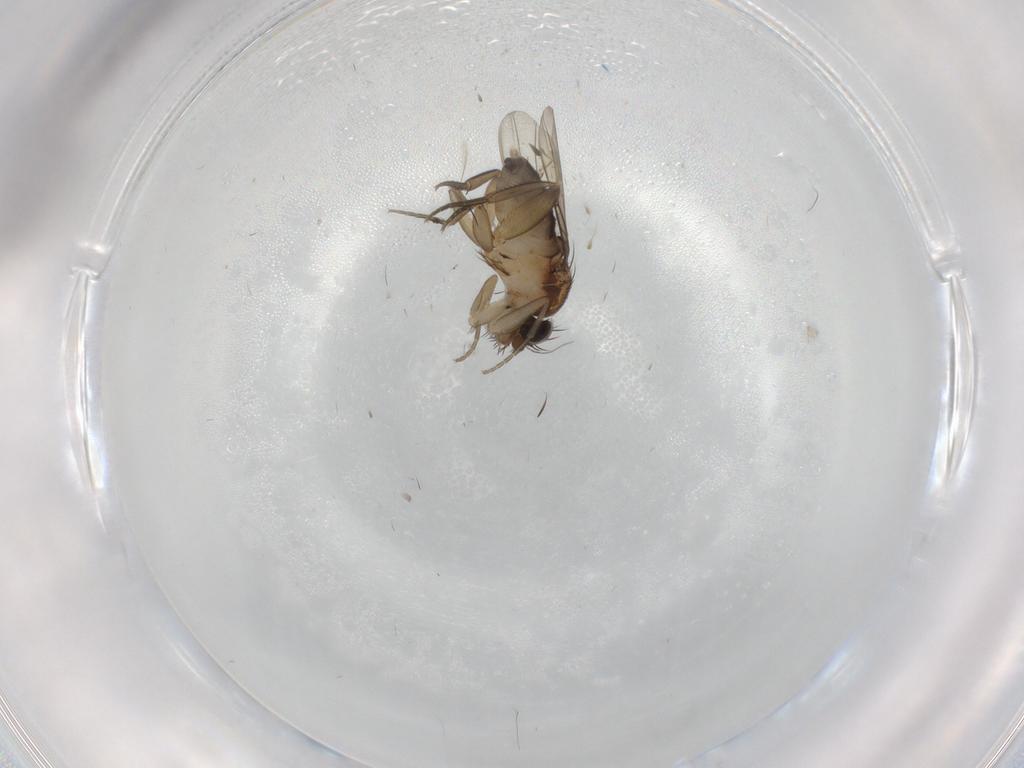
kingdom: Animalia
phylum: Arthropoda
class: Insecta
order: Diptera
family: Phoridae
